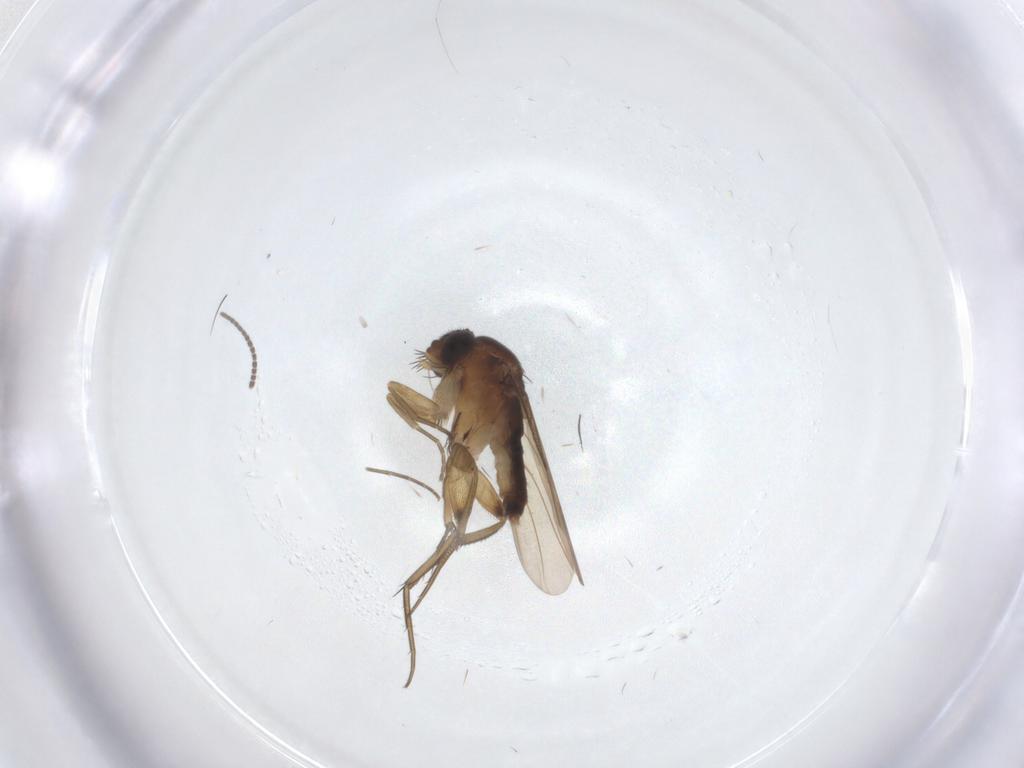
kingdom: Animalia
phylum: Arthropoda
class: Insecta
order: Diptera
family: Phoridae
